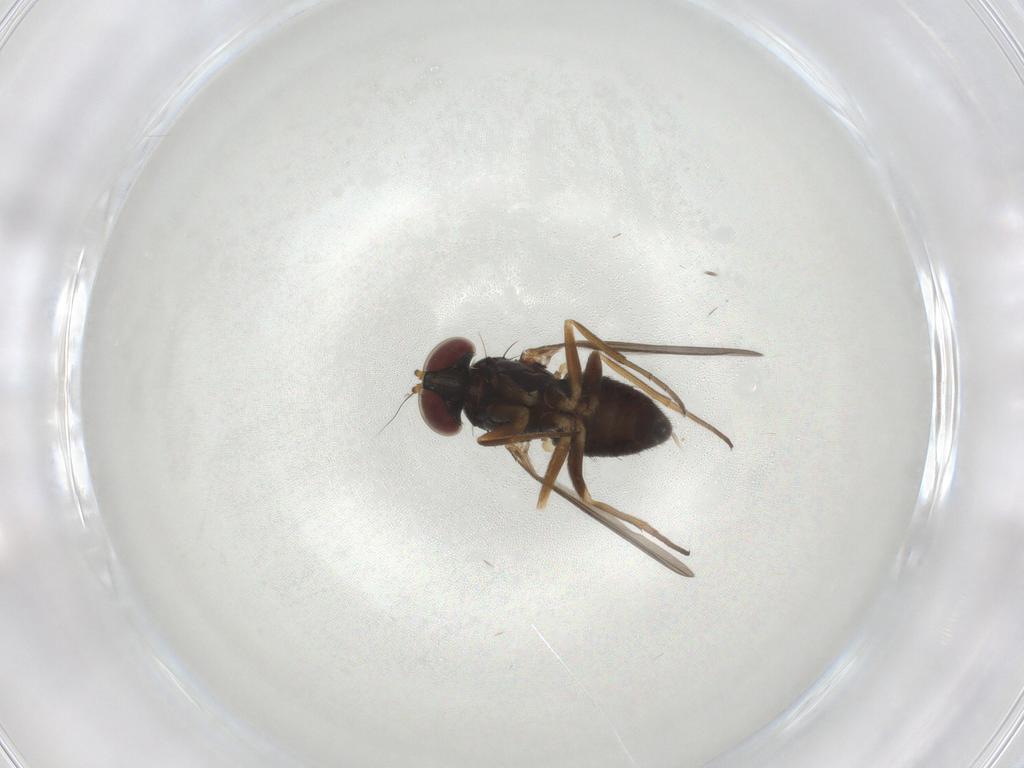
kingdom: Animalia
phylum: Arthropoda
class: Insecta
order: Diptera
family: Dolichopodidae
